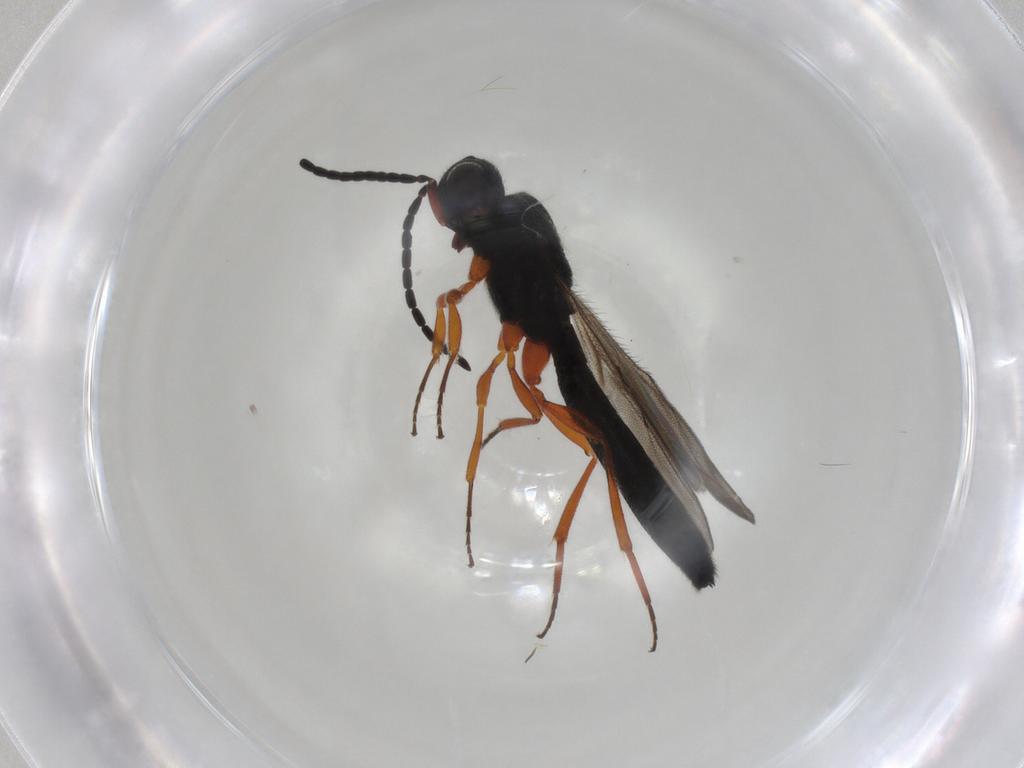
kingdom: Animalia
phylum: Arthropoda
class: Insecta
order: Hymenoptera
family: Scelionidae
